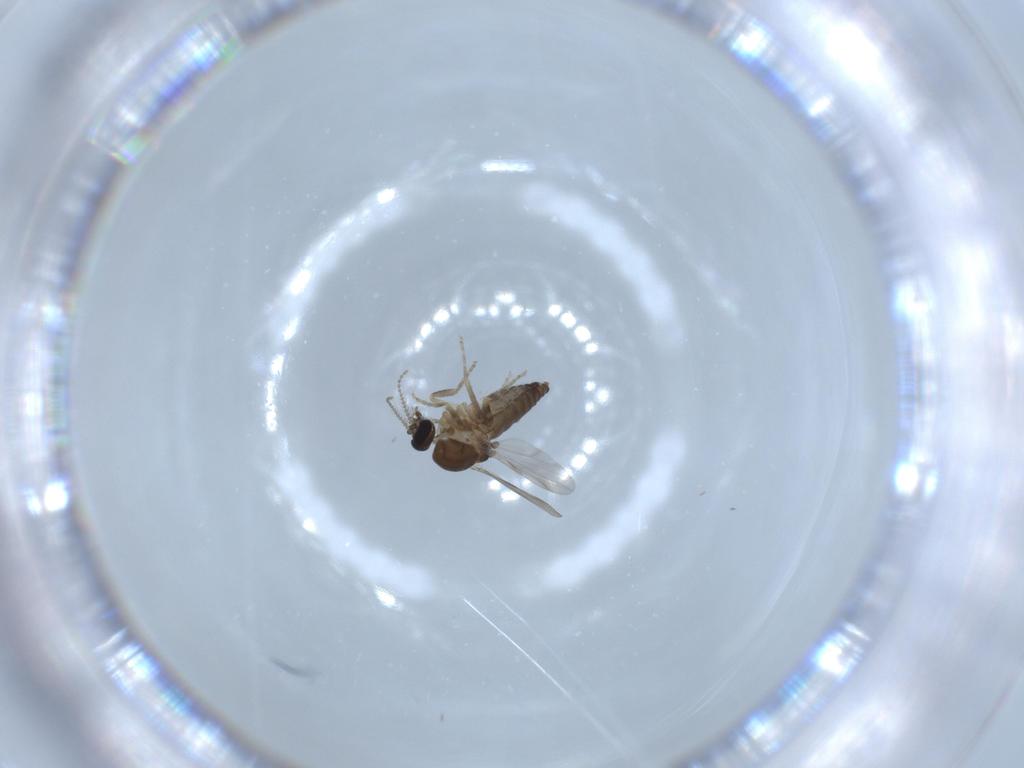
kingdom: Animalia
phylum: Arthropoda
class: Insecta
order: Diptera
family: Ceratopogonidae
